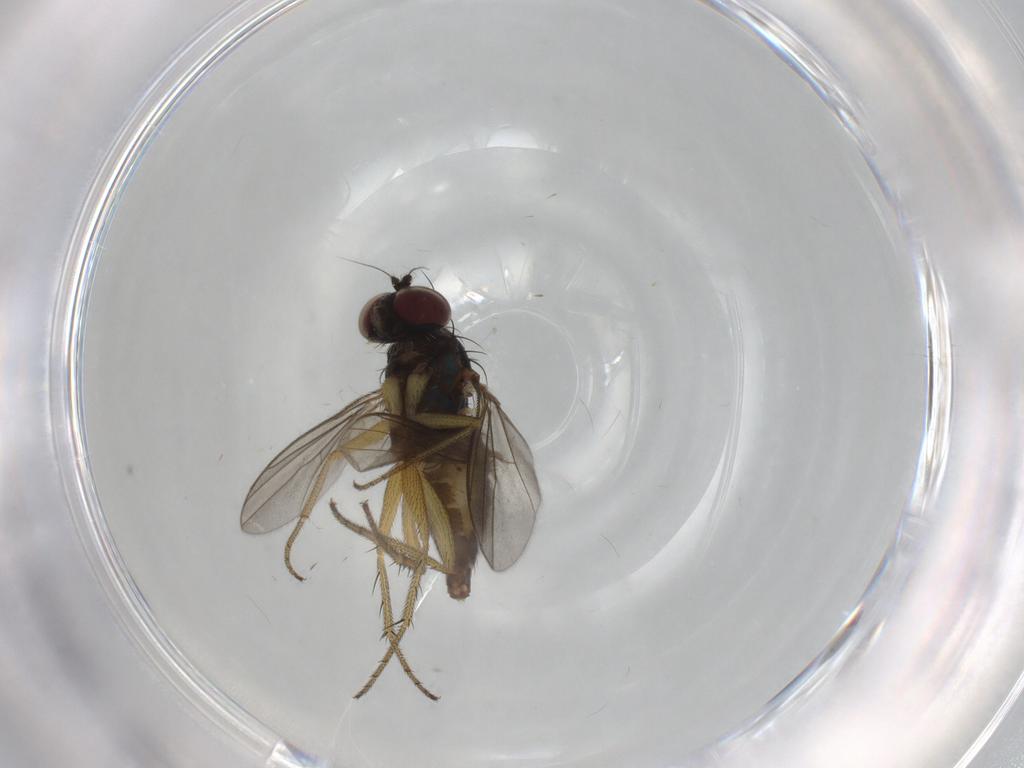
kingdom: Animalia
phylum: Arthropoda
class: Insecta
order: Diptera
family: Dolichopodidae
